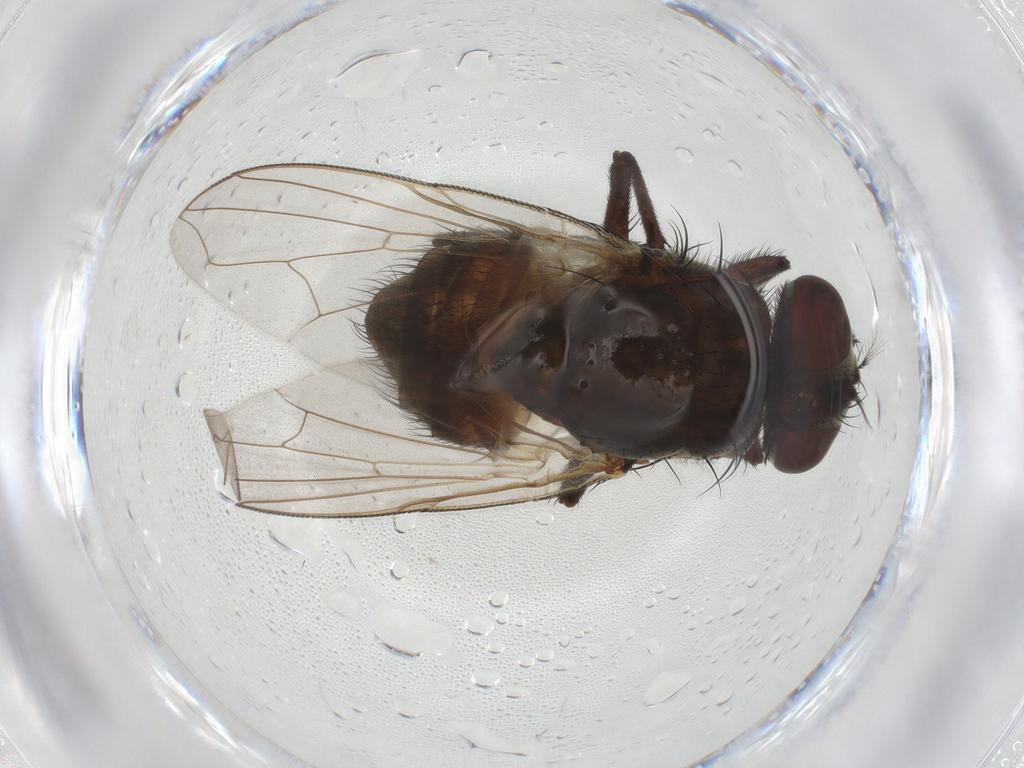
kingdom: Animalia
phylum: Arthropoda
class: Insecta
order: Diptera
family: Muscidae
